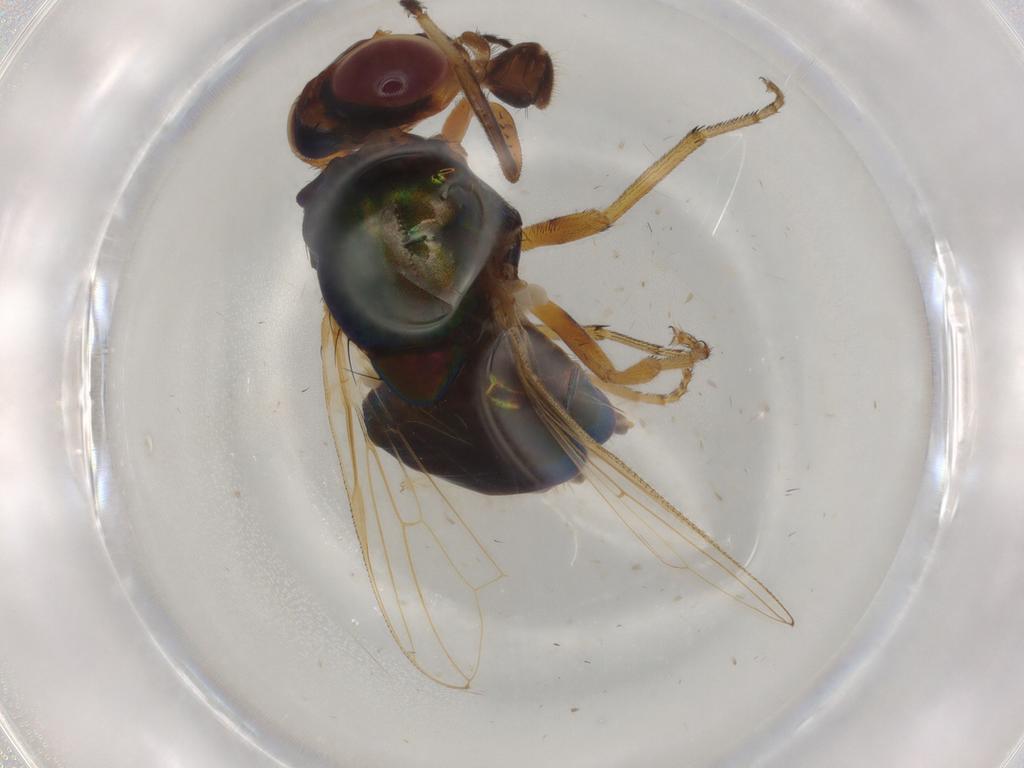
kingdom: Animalia
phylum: Arthropoda
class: Insecta
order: Diptera
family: Ulidiidae
